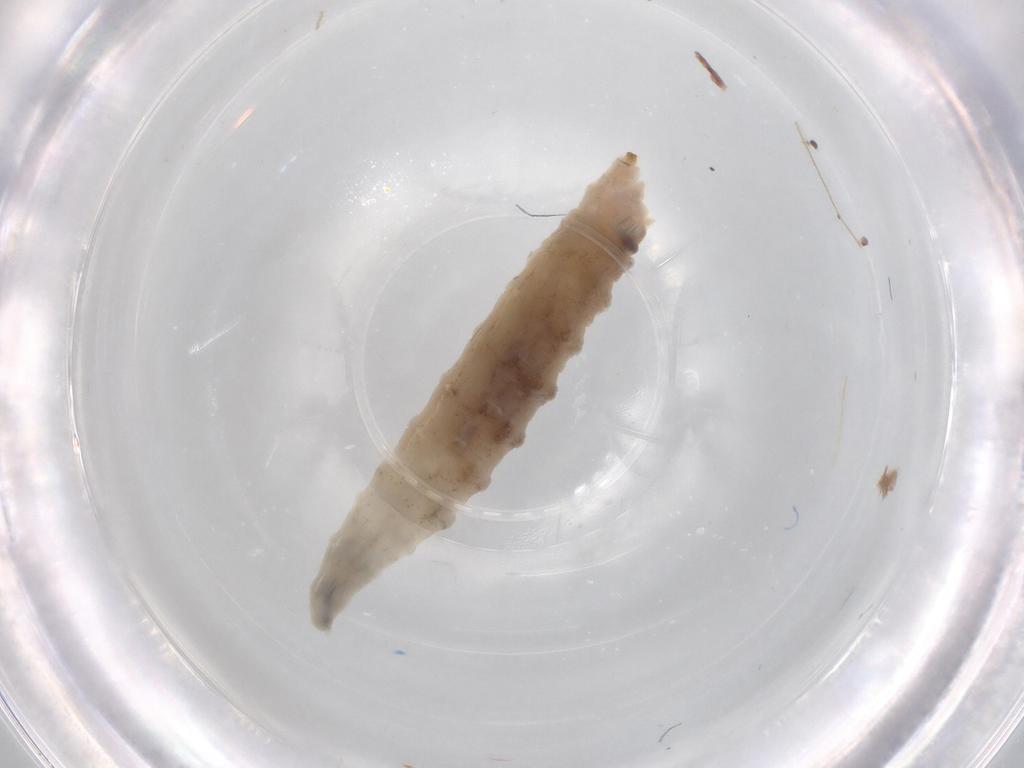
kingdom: Animalia
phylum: Arthropoda
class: Insecta
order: Diptera
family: Drosophilidae
